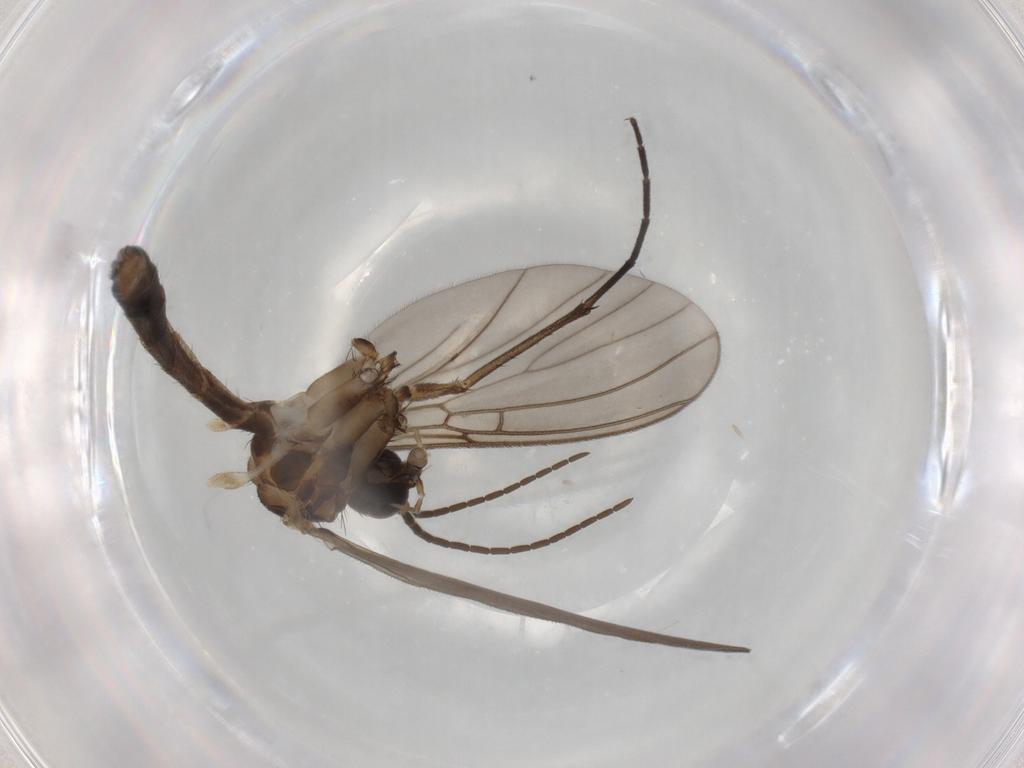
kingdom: Animalia
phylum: Arthropoda
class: Insecta
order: Diptera
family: Mycetophilidae
